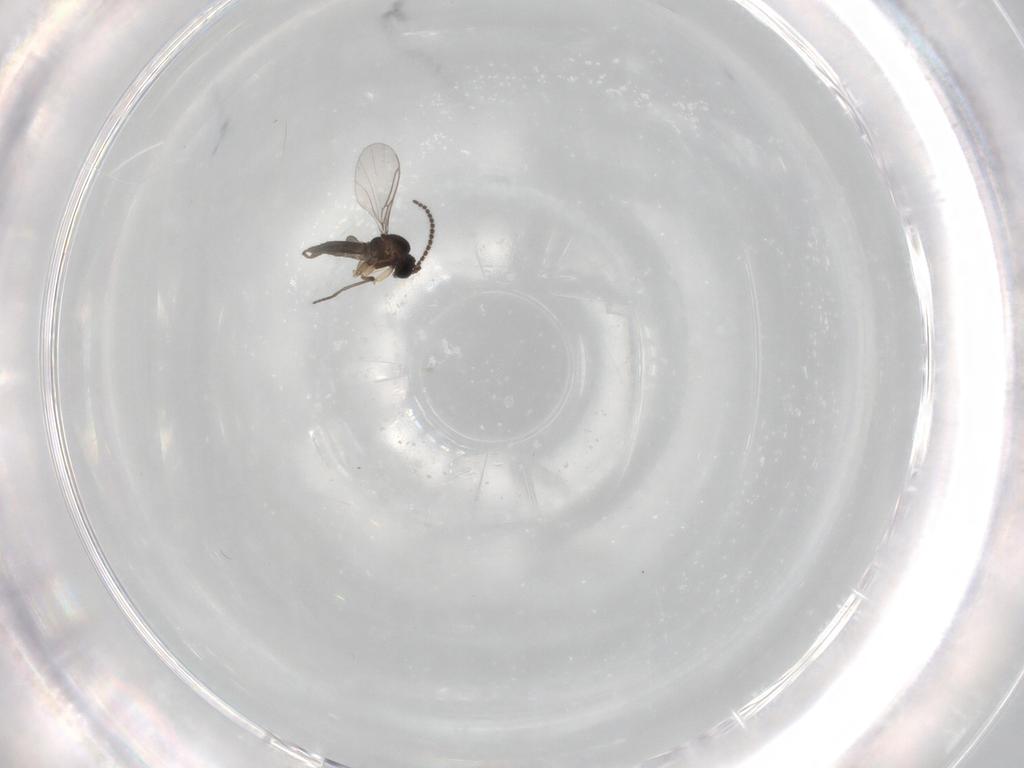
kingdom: Animalia
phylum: Arthropoda
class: Insecta
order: Diptera
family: Sciaridae
